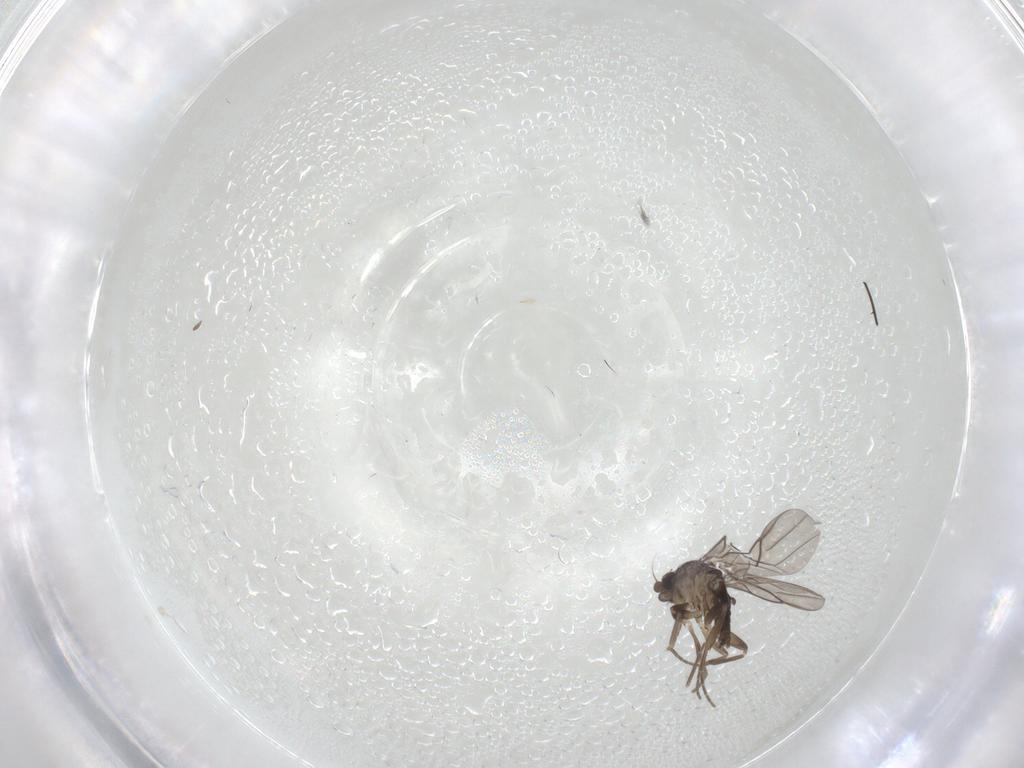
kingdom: Animalia
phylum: Arthropoda
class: Insecta
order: Diptera
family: Phoridae
